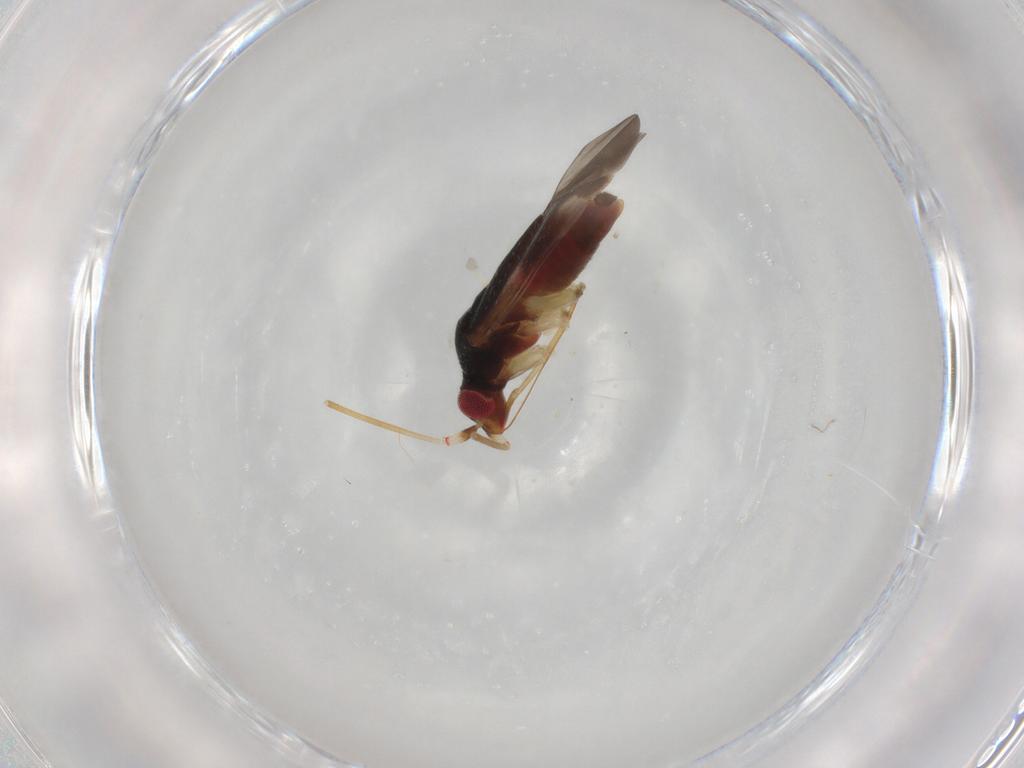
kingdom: Animalia
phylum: Arthropoda
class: Insecta
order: Hemiptera
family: Miridae
